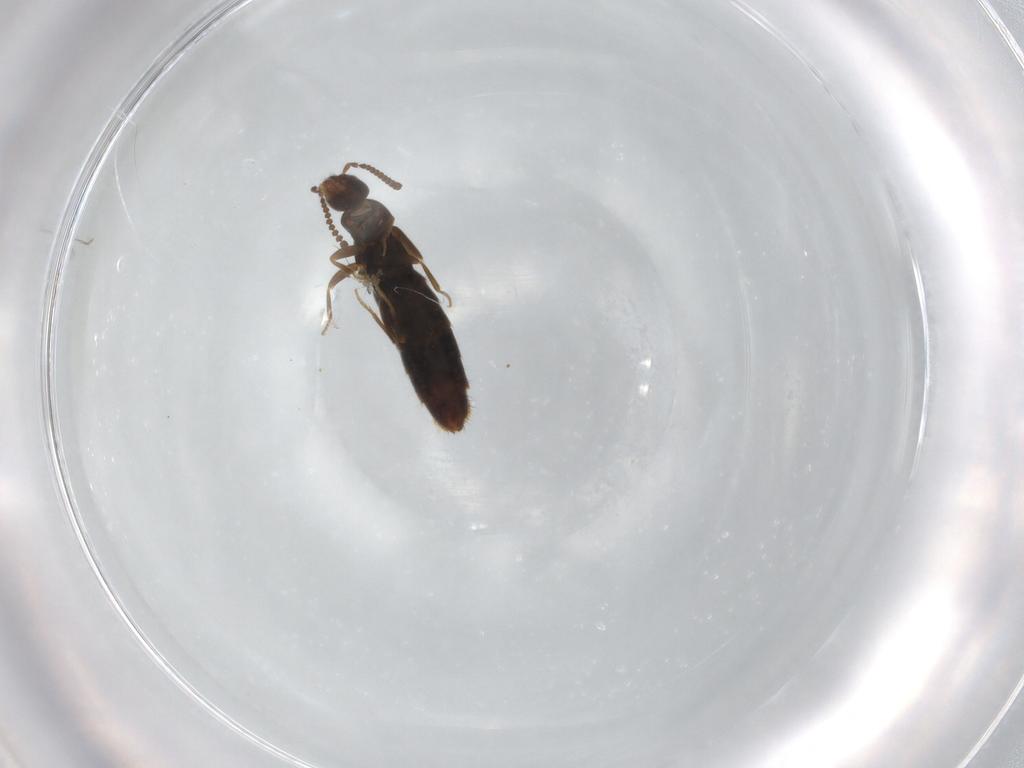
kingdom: Animalia
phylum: Arthropoda
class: Insecta
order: Coleoptera
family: Staphylinidae
